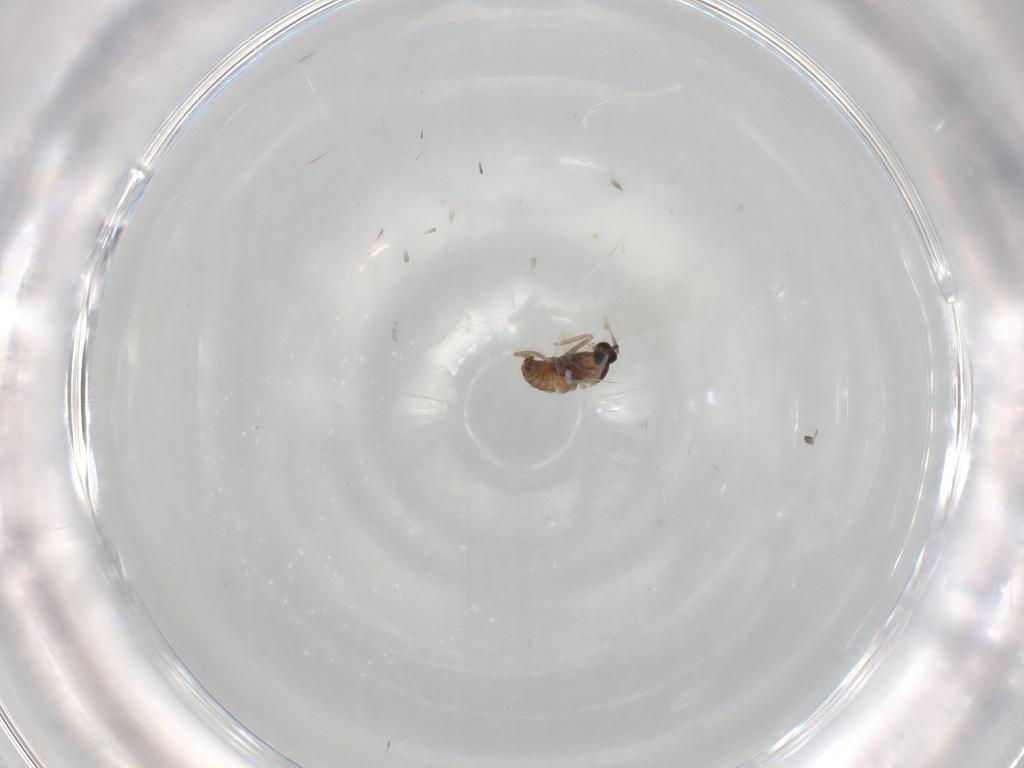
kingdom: Animalia
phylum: Arthropoda
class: Insecta
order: Diptera
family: Cecidomyiidae
